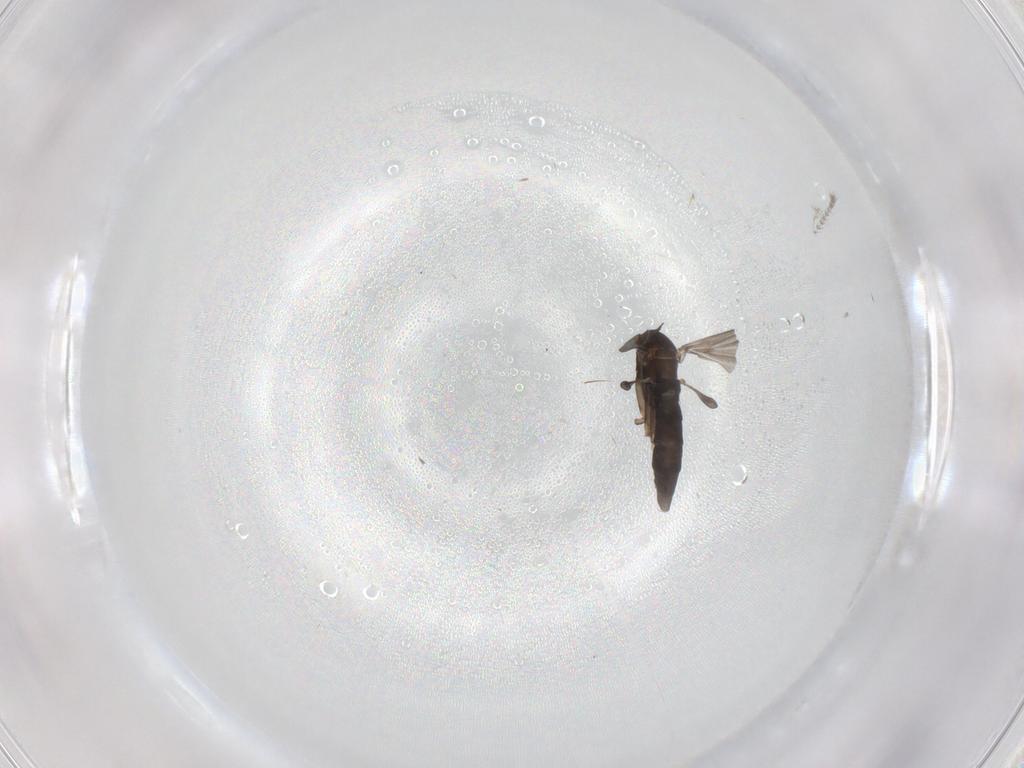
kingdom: Animalia
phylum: Arthropoda
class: Insecta
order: Diptera
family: Sciaridae
